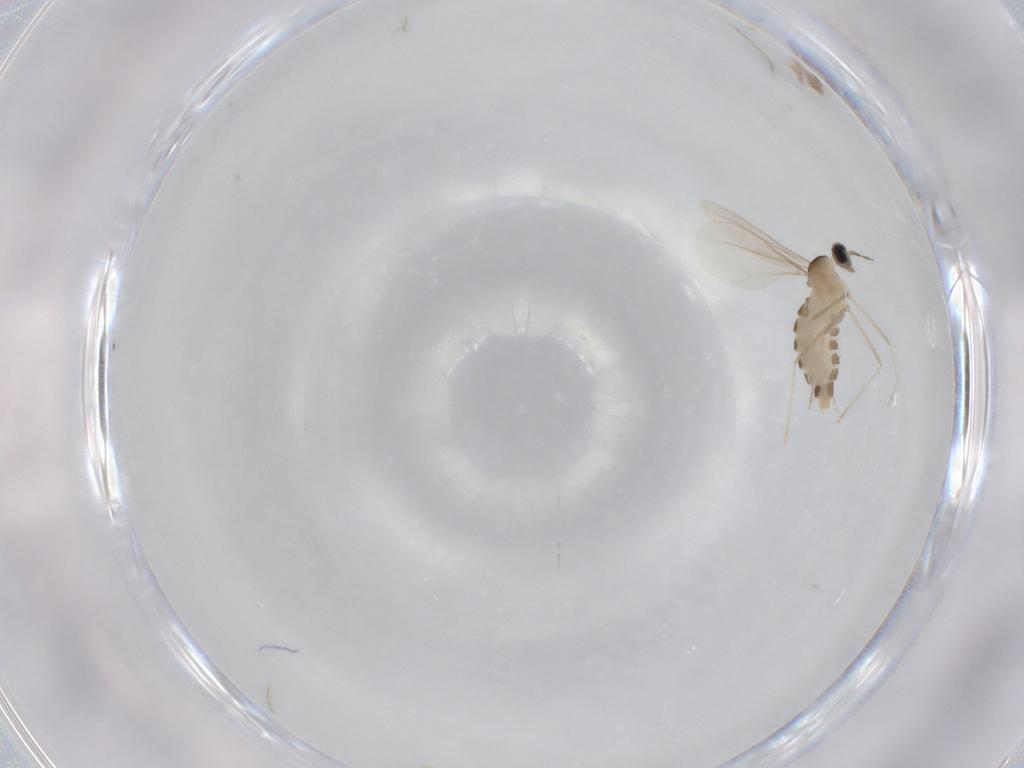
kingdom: Animalia
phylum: Arthropoda
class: Insecta
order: Diptera
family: Cecidomyiidae
